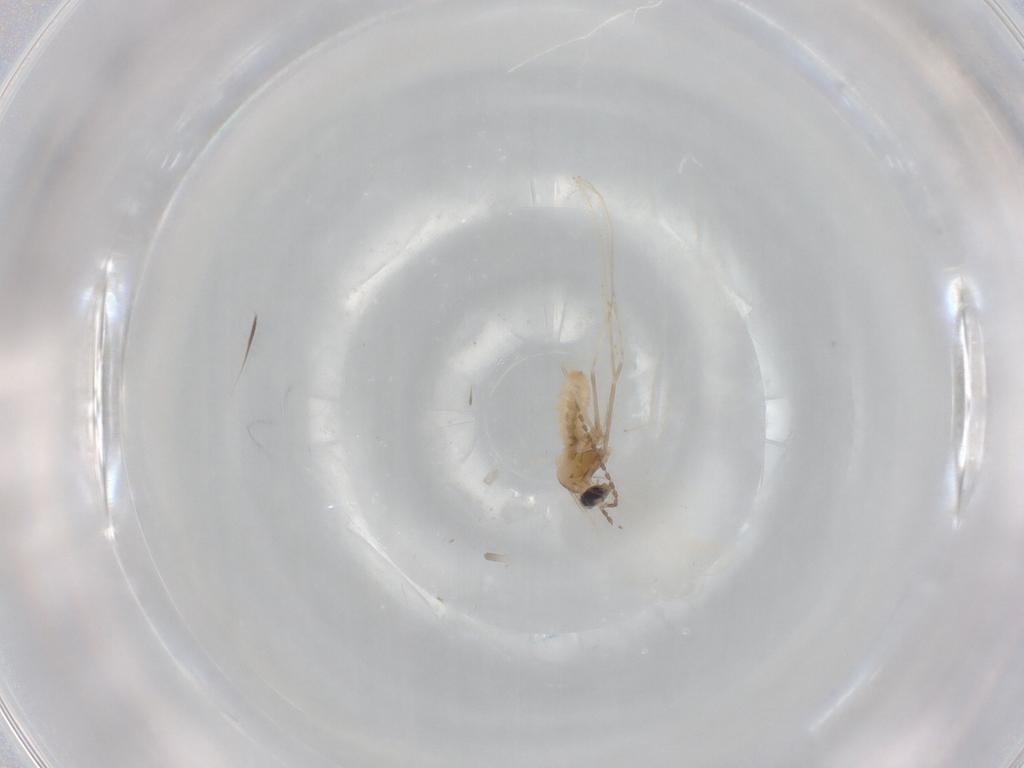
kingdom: Animalia
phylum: Arthropoda
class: Insecta
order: Diptera
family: Cecidomyiidae
